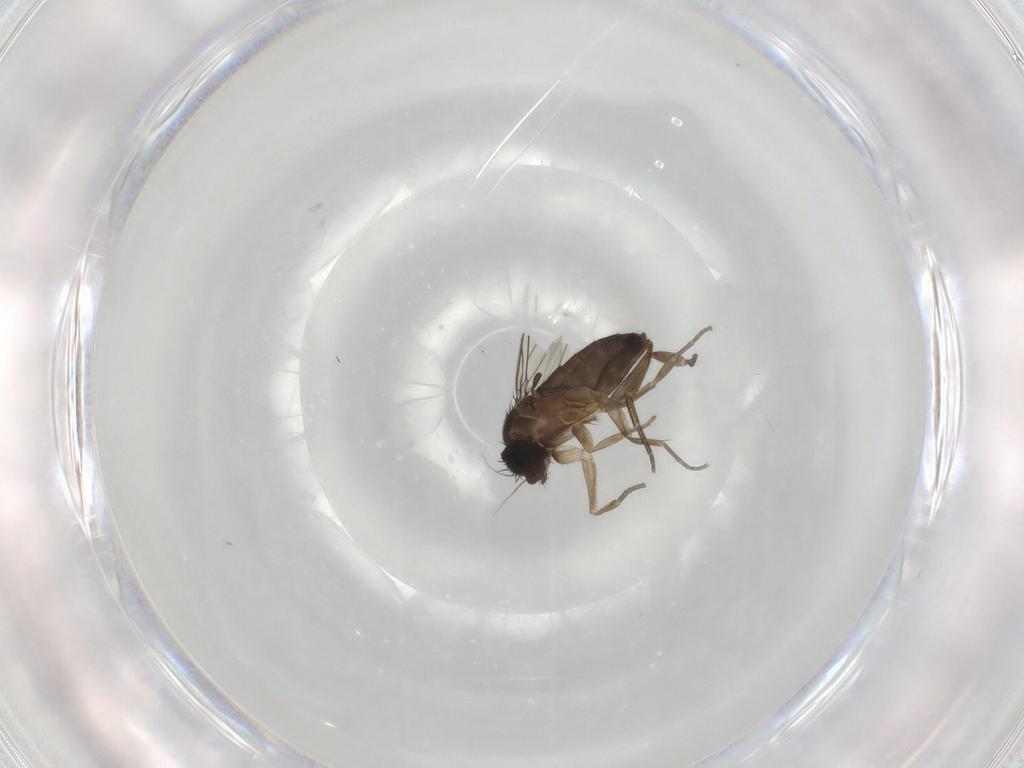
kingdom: Animalia
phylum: Arthropoda
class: Insecta
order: Diptera
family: Phoridae
